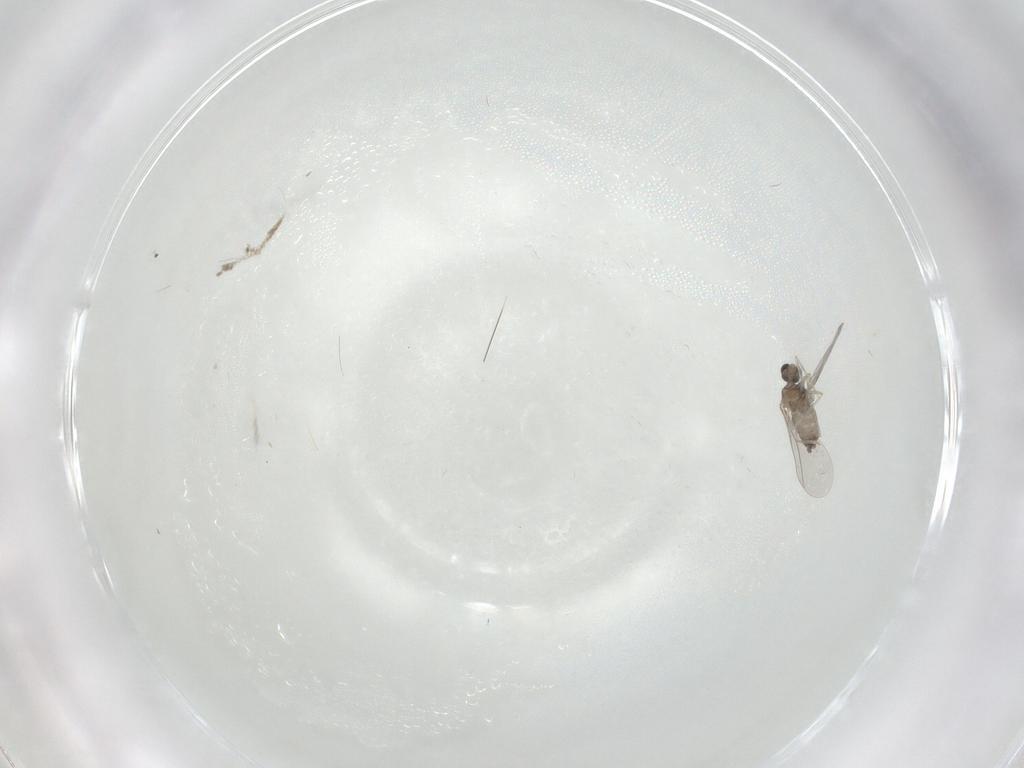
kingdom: Animalia
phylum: Arthropoda
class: Insecta
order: Diptera
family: Cecidomyiidae
